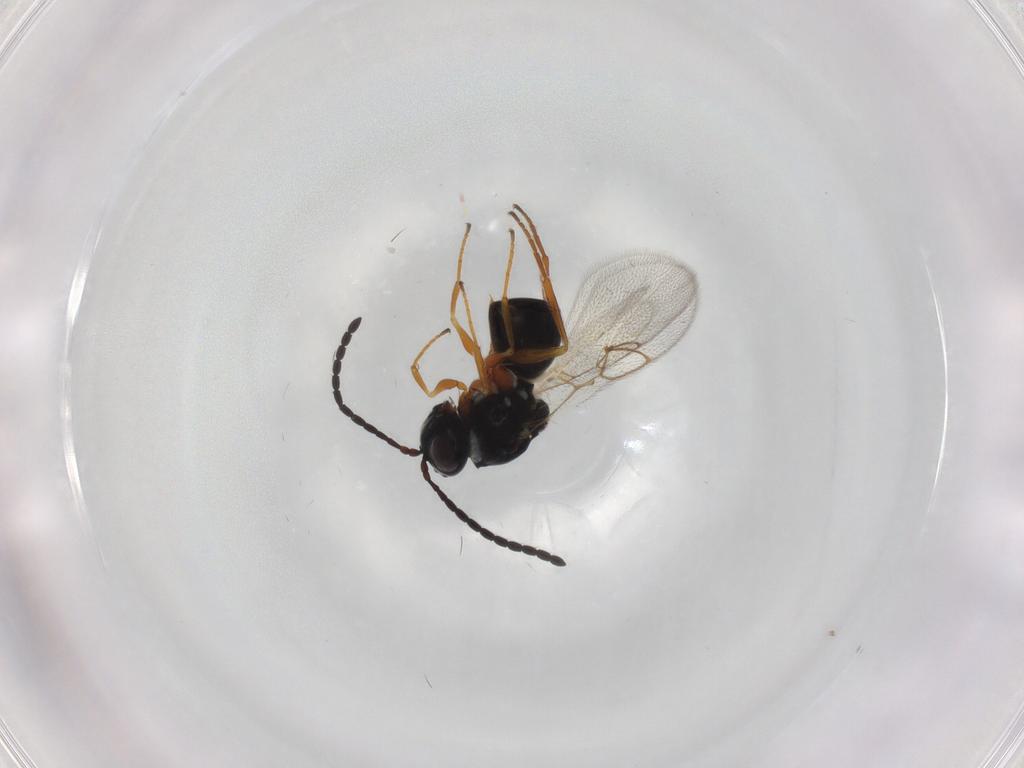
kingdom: Animalia
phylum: Arthropoda
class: Insecta
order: Hymenoptera
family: Figitidae
